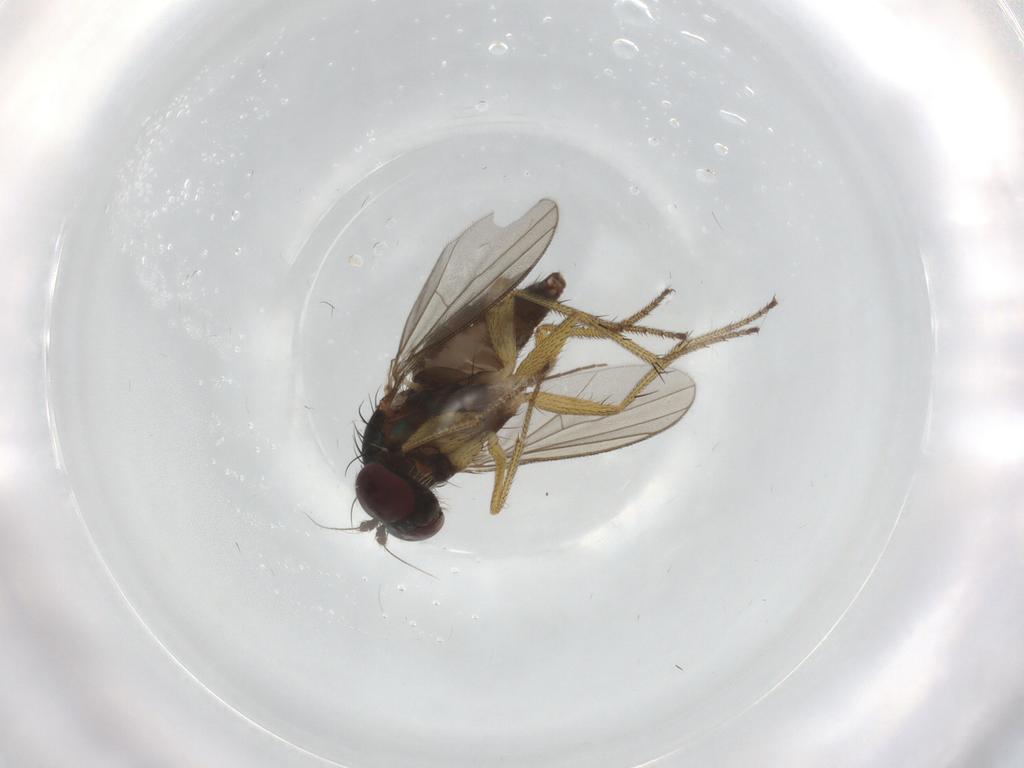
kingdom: Animalia
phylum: Arthropoda
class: Insecta
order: Diptera
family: Dolichopodidae
